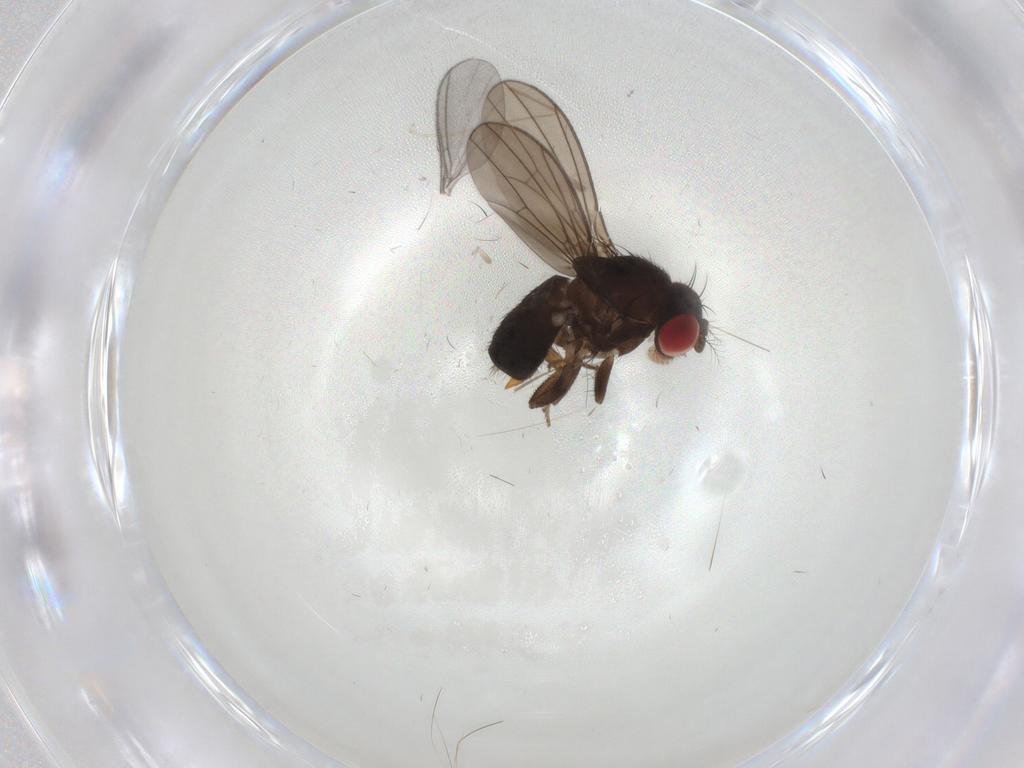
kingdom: Animalia
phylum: Arthropoda
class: Insecta
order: Diptera
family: Drosophilidae
